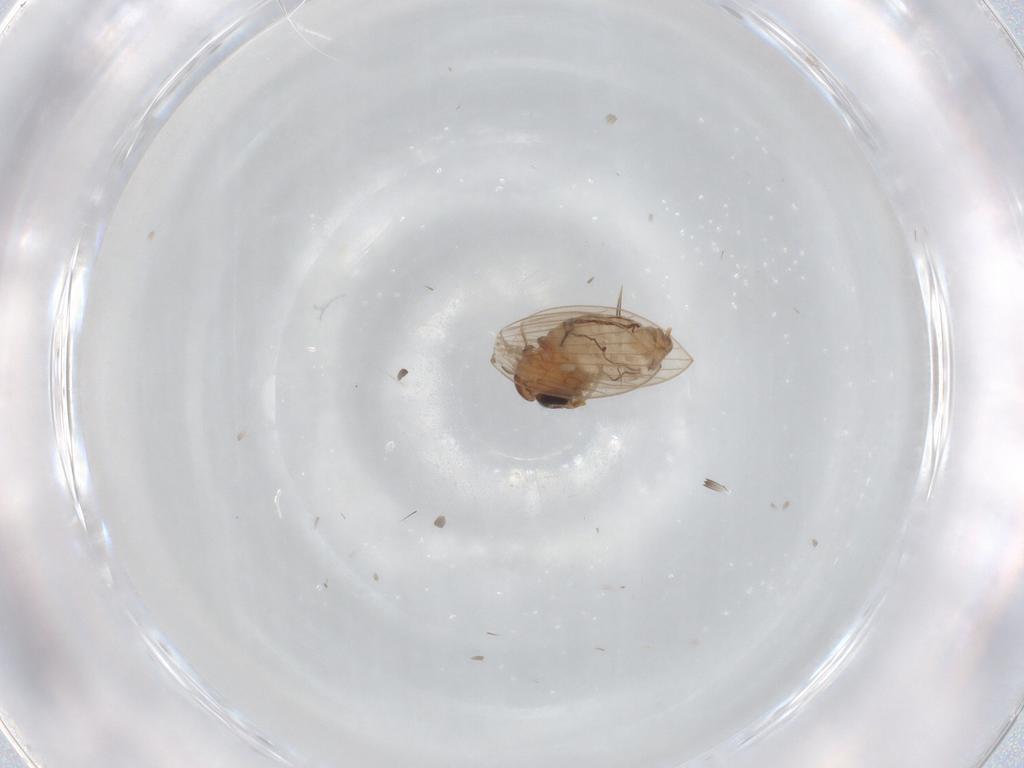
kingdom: Animalia
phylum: Arthropoda
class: Insecta
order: Diptera
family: Psychodidae
